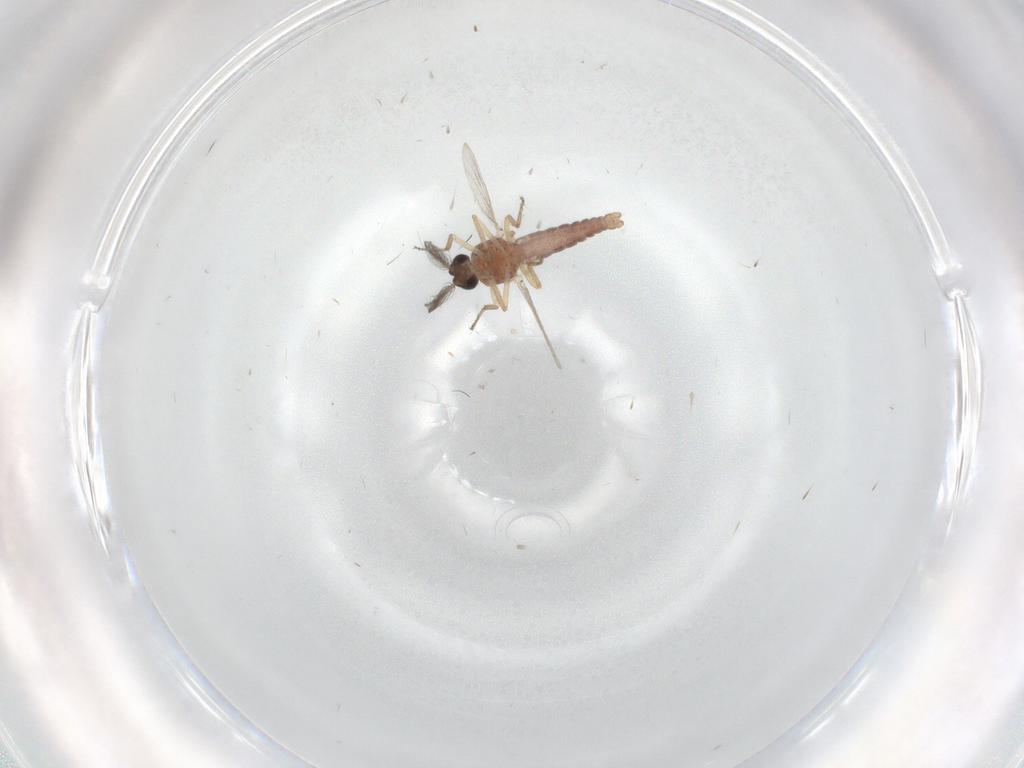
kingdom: Animalia
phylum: Arthropoda
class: Insecta
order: Diptera
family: Ceratopogonidae
